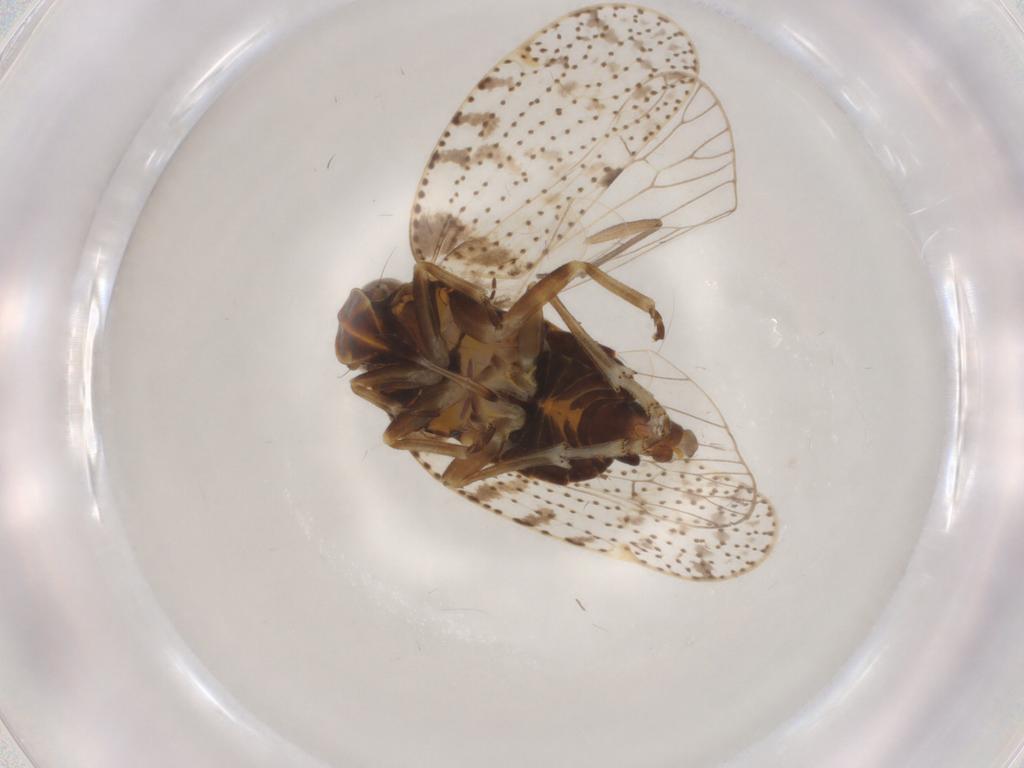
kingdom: Animalia
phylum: Arthropoda
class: Insecta
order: Hemiptera
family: Cixiidae
